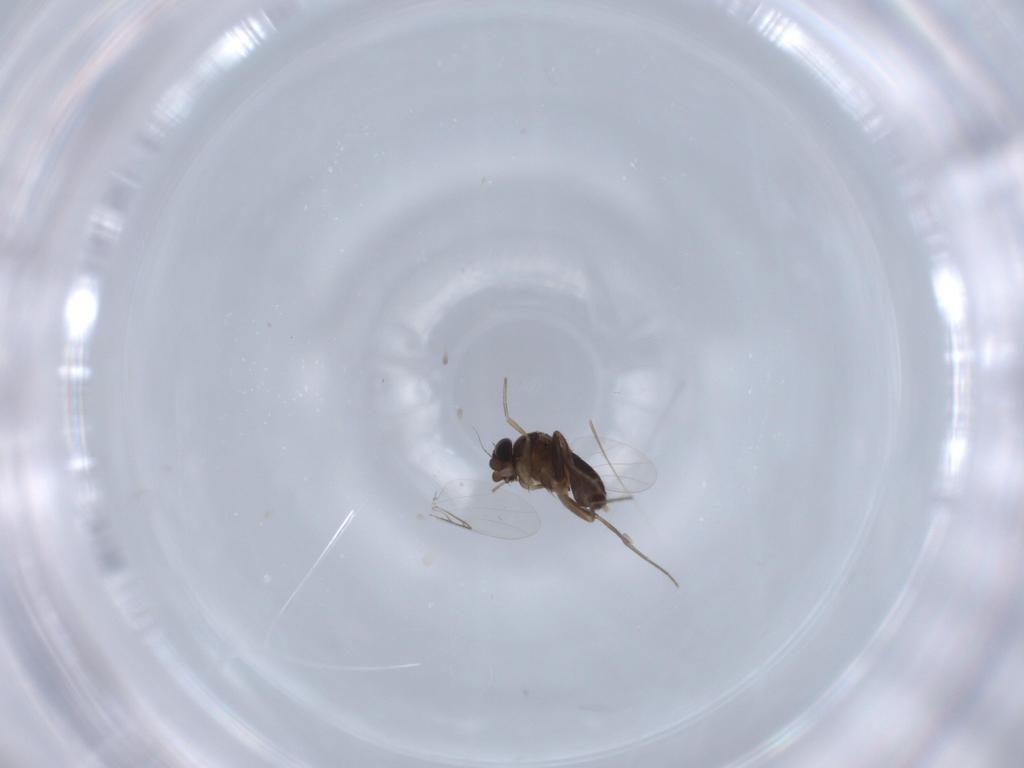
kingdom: Animalia
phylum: Arthropoda
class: Insecta
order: Diptera
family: Phoridae
